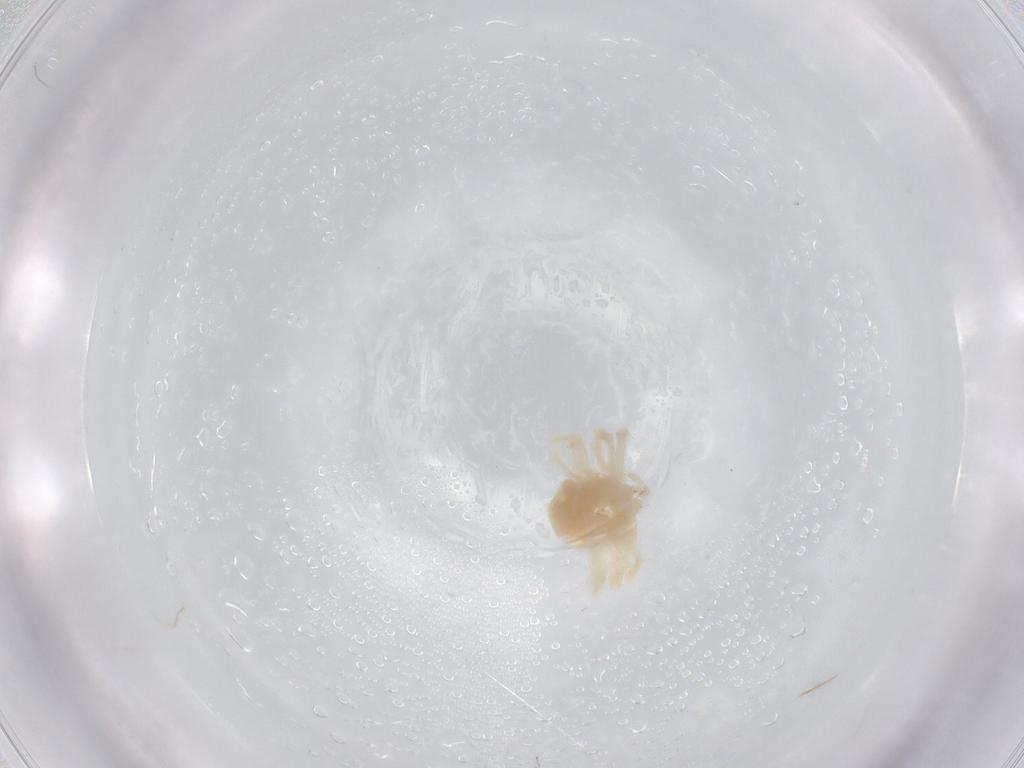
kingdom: Animalia
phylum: Arthropoda
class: Arachnida
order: Trombidiformes
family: Anystidae
